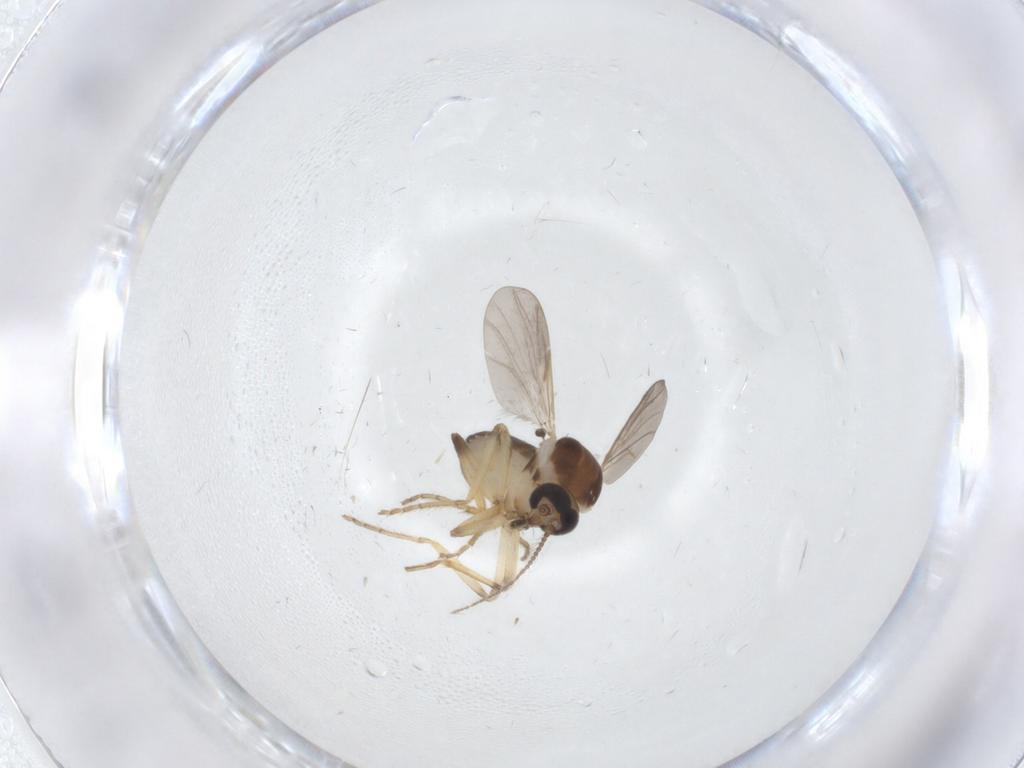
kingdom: Animalia
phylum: Arthropoda
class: Insecta
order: Diptera
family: Ceratopogonidae
